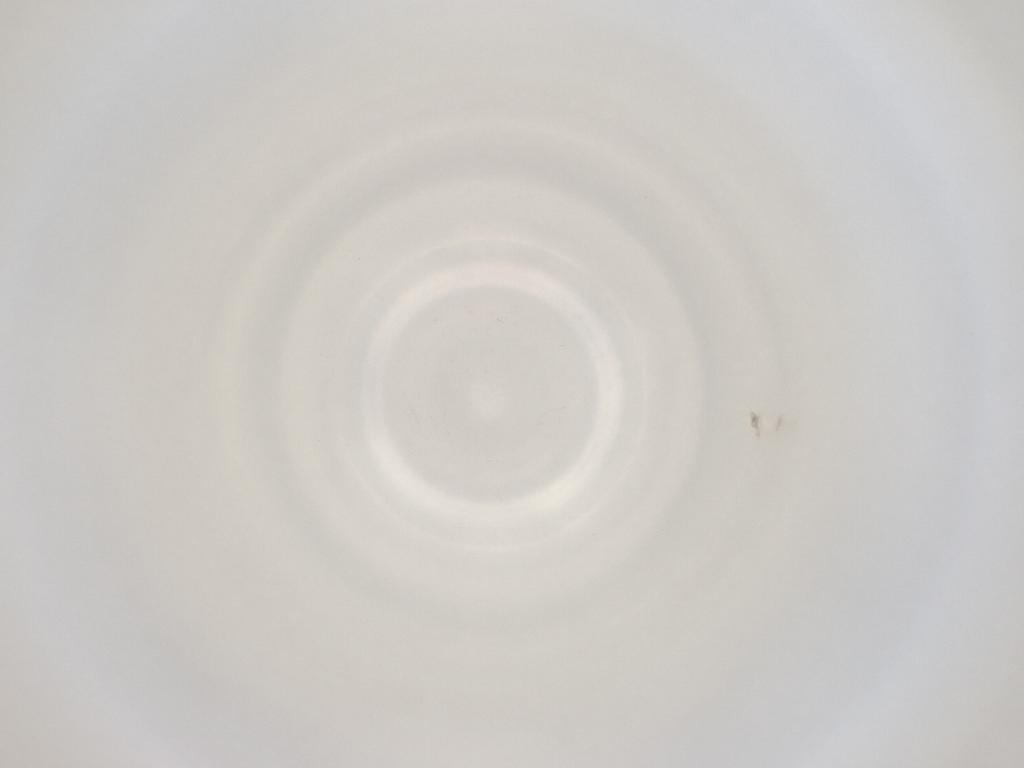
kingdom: Animalia
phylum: Arthropoda
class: Insecta
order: Diptera
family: Cecidomyiidae
